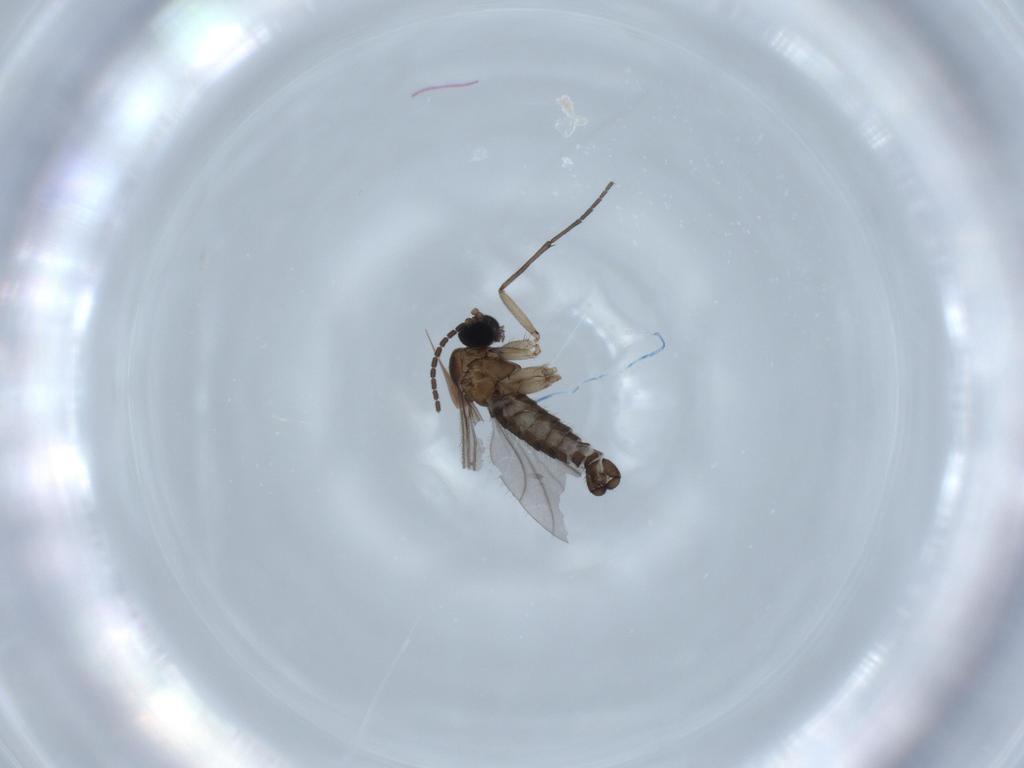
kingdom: Animalia
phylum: Arthropoda
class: Insecta
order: Diptera
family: Sciaridae
